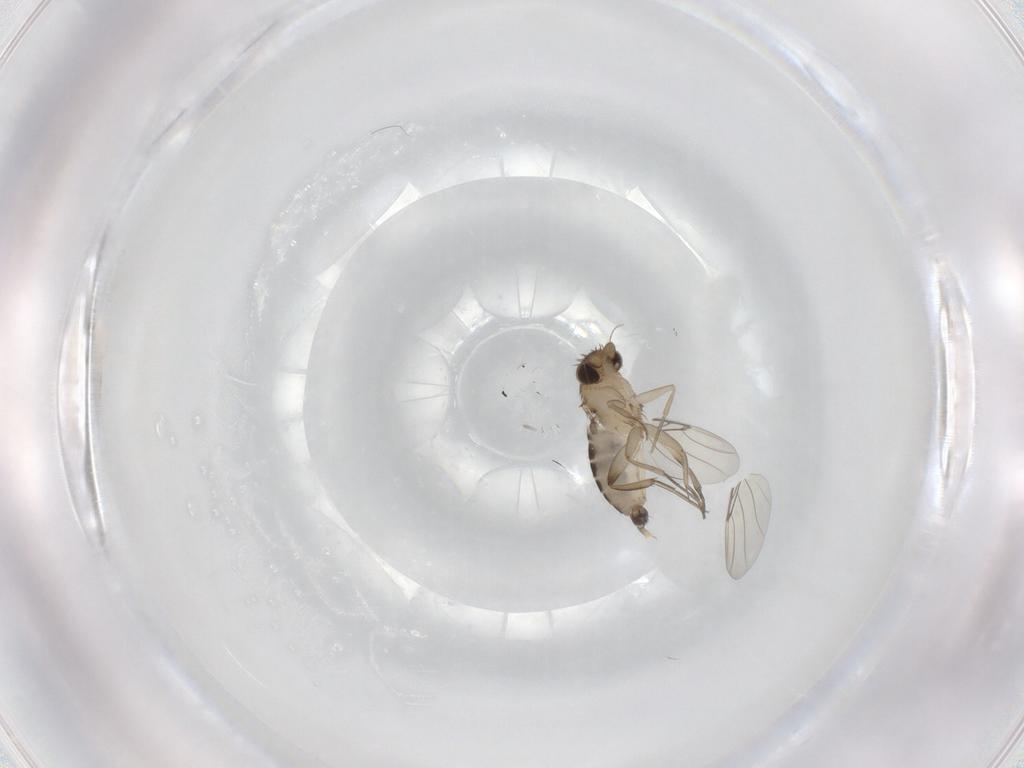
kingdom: Animalia
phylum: Arthropoda
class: Insecta
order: Diptera
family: Phoridae
